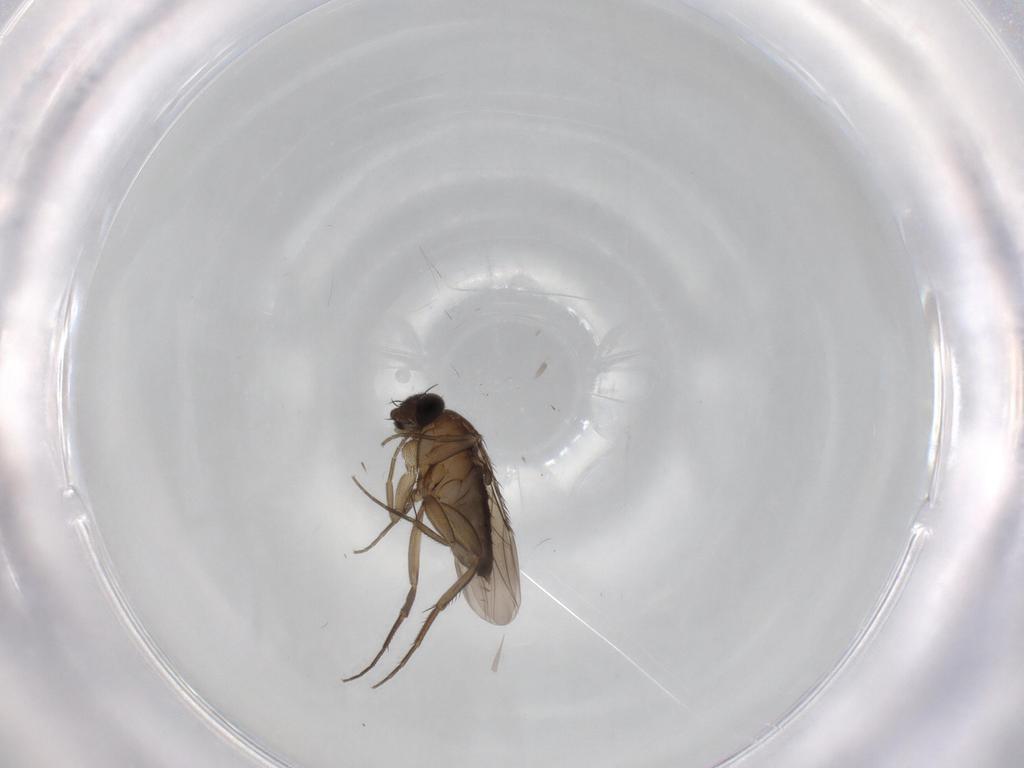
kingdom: Animalia
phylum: Arthropoda
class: Insecta
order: Diptera
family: Phoridae
